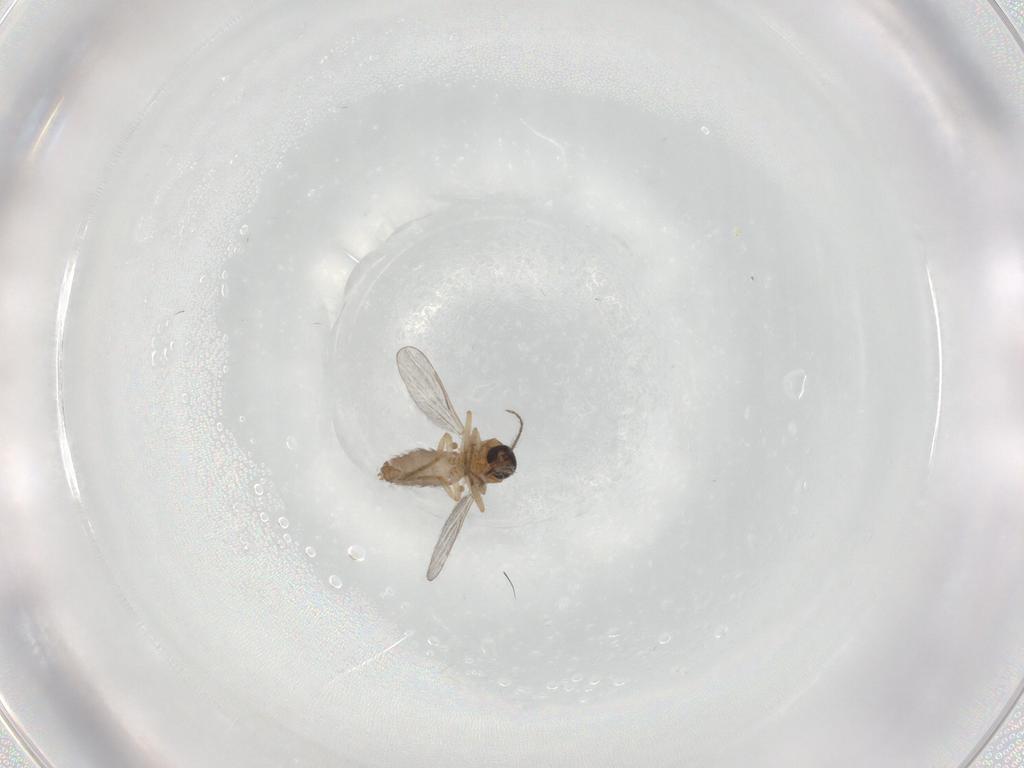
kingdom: Animalia
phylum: Arthropoda
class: Insecta
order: Diptera
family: Ceratopogonidae
